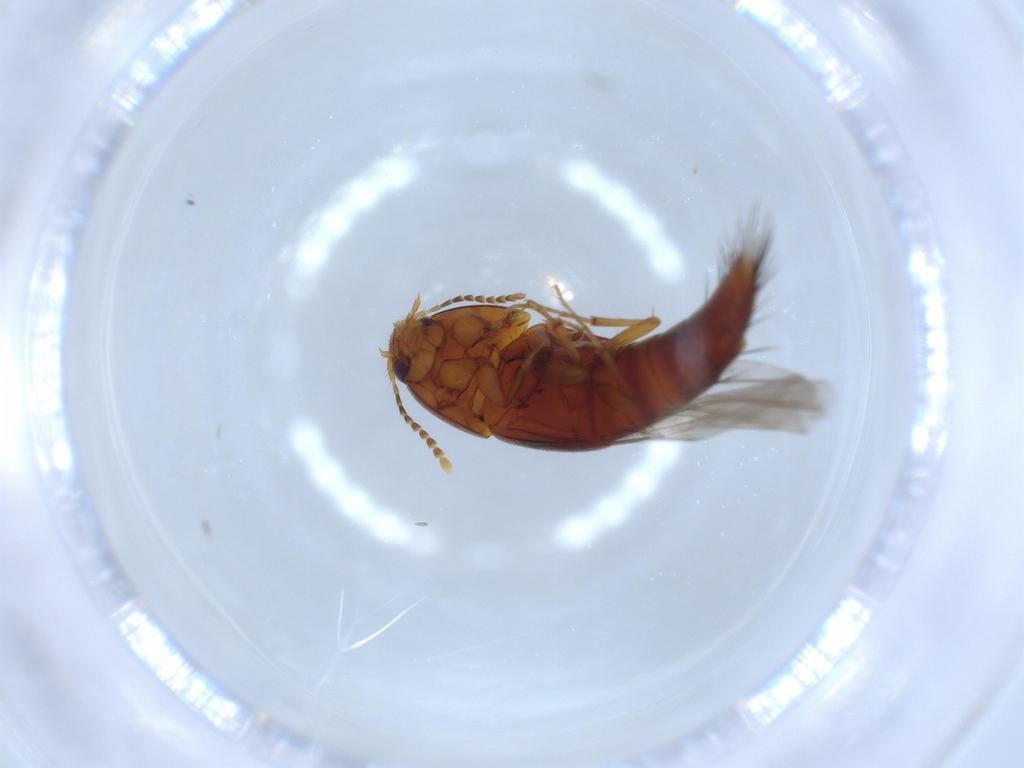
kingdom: Animalia
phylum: Arthropoda
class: Insecta
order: Coleoptera
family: Staphylinidae
